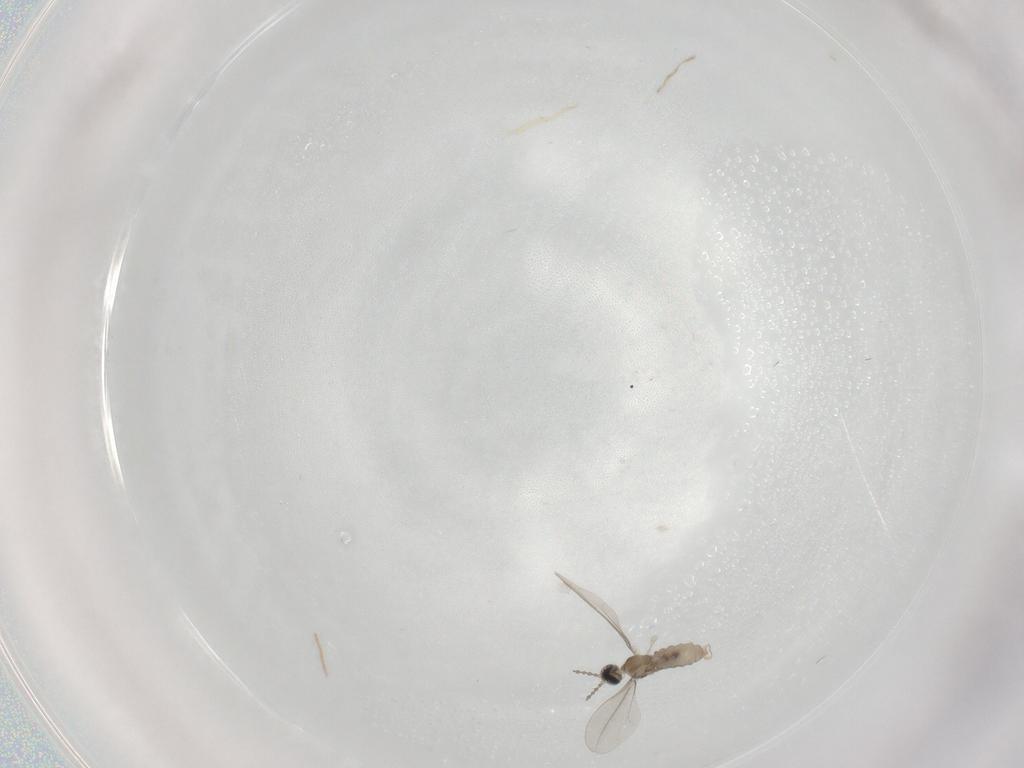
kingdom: Animalia
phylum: Arthropoda
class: Insecta
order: Diptera
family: Cecidomyiidae
